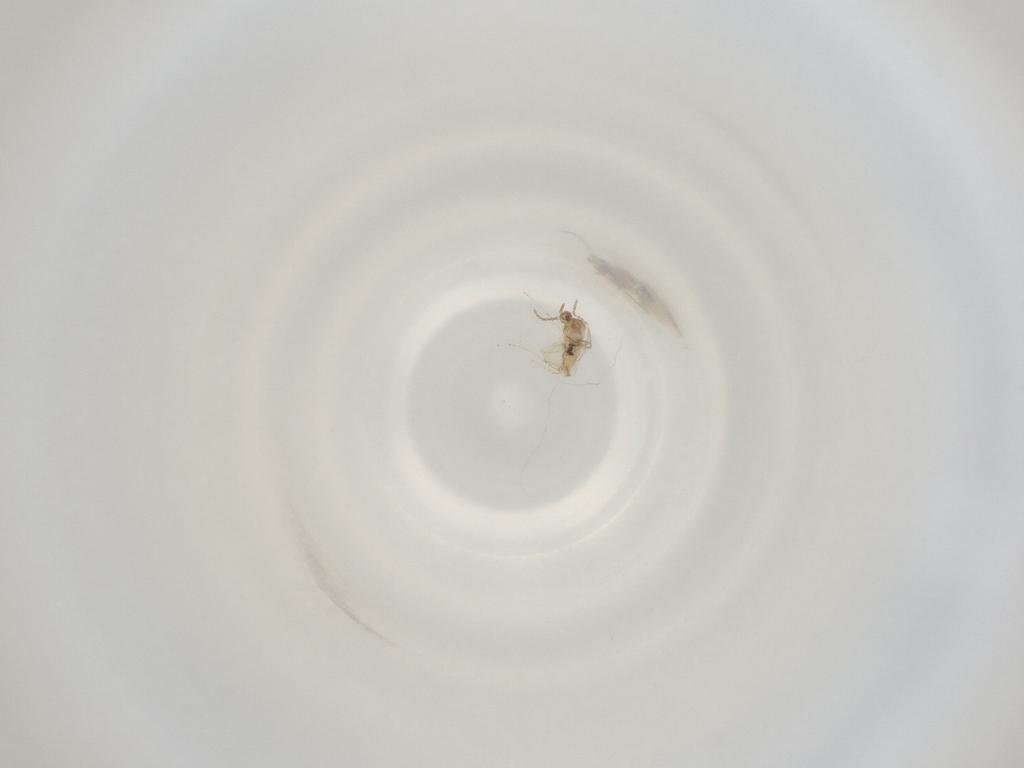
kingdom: Animalia
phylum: Arthropoda
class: Insecta
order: Diptera
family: Cecidomyiidae
